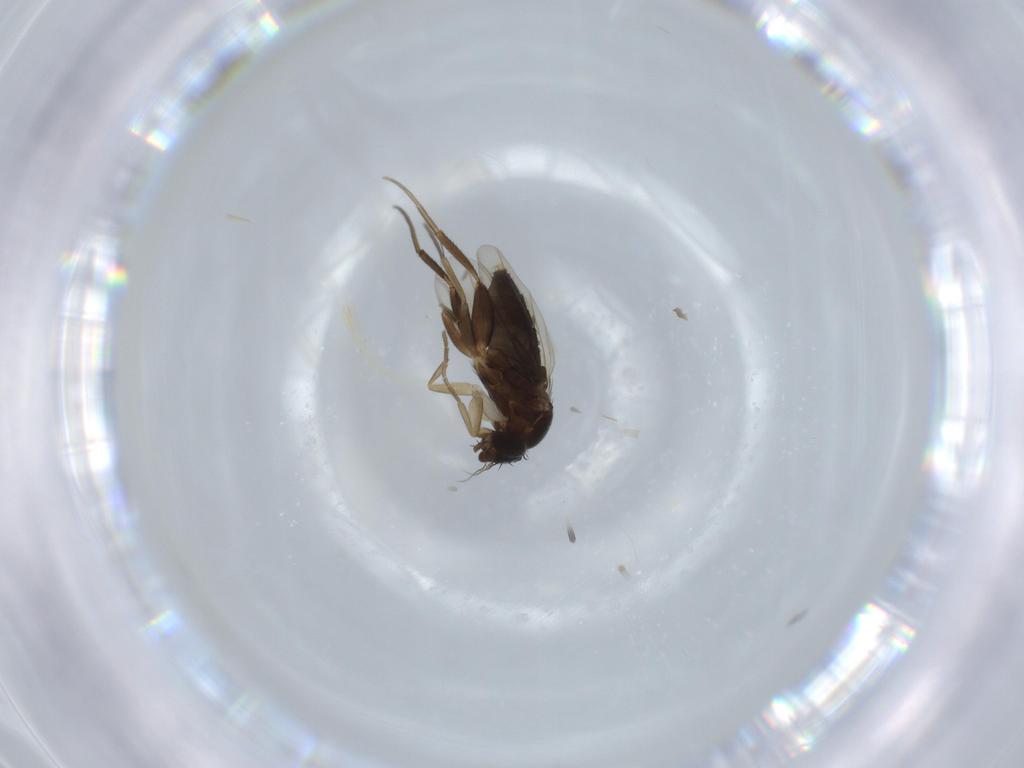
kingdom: Animalia
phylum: Arthropoda
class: Insecta
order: Diptera
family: Phoridae
